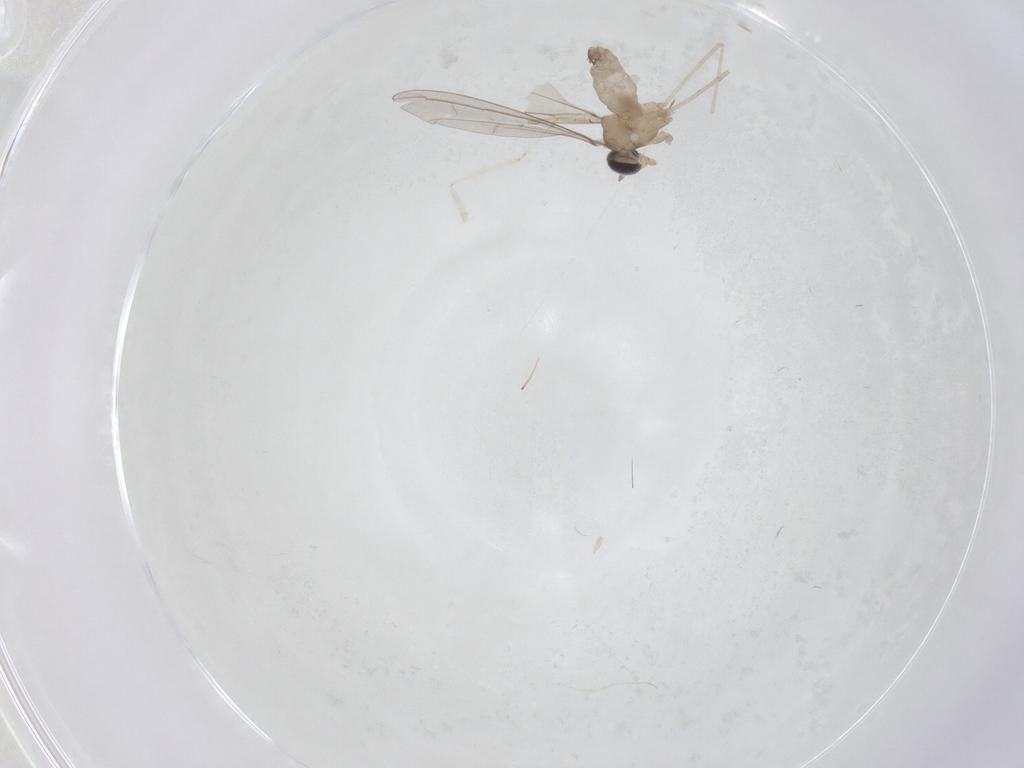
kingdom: Animalia
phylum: Arthropoda
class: Insecta
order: Diptera
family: Cecidomyiidae
